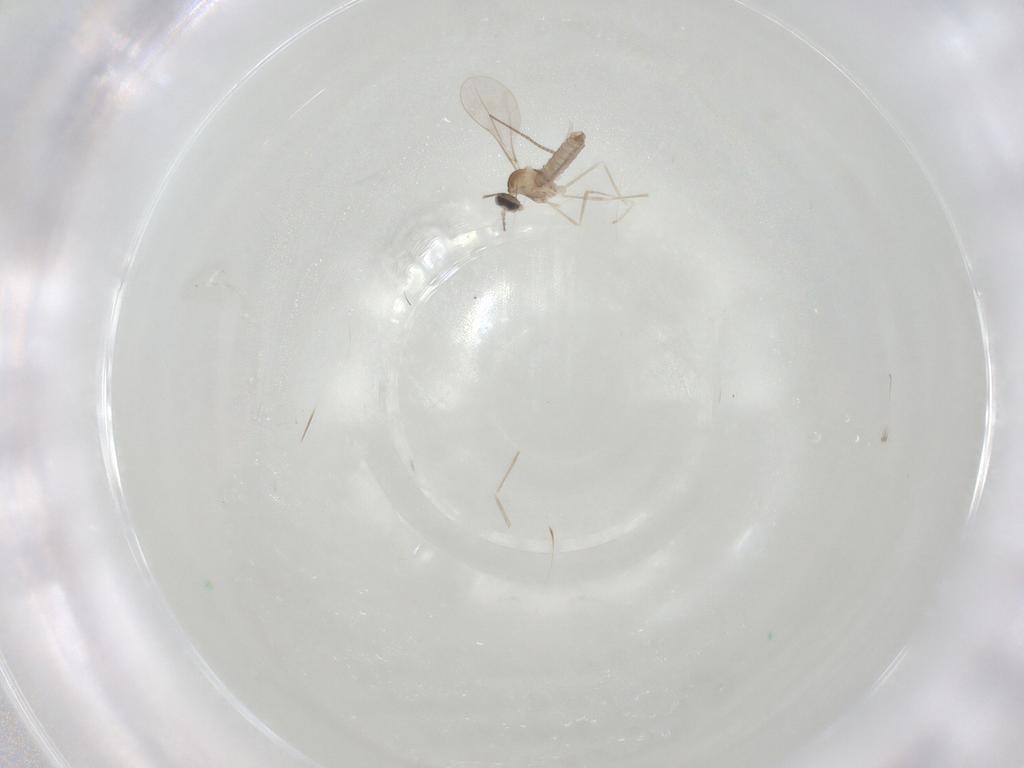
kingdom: Animalia
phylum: Arthropoda
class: Insecta
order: Diptera
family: Cecidomyiidae
